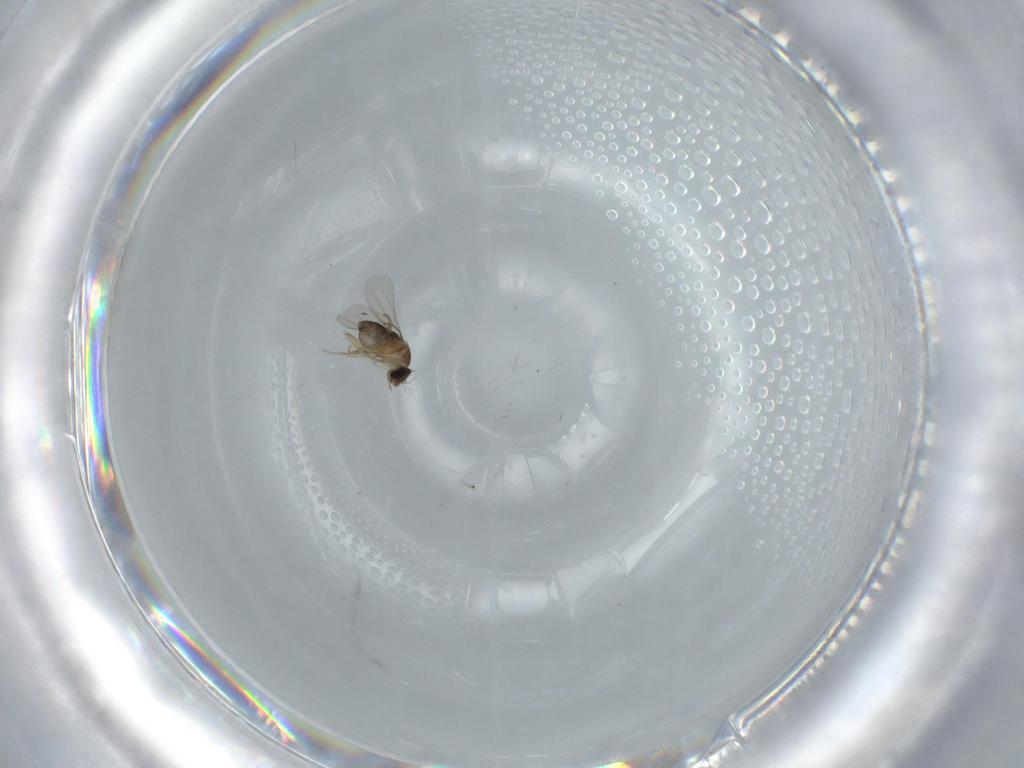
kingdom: Animalia
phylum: Arthropoda
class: Insecta
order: Diptera
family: Phoridae
